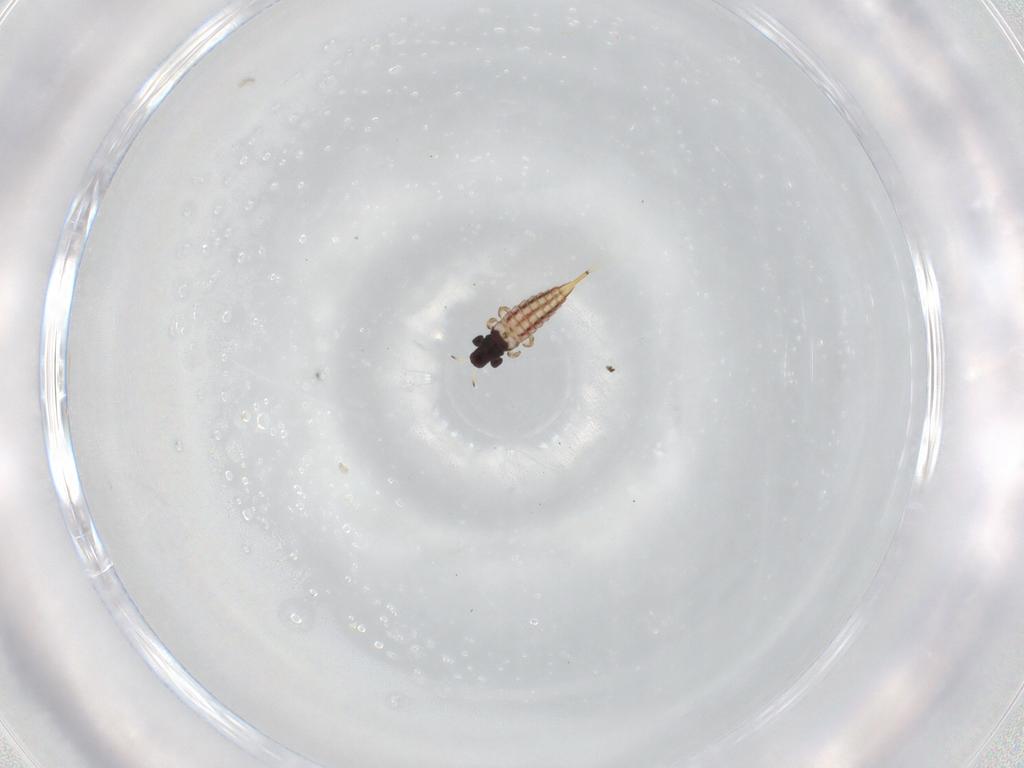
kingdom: Animalia
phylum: Arthropoda
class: Insecta
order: Thysanoptera
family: Phlaeothripidae
